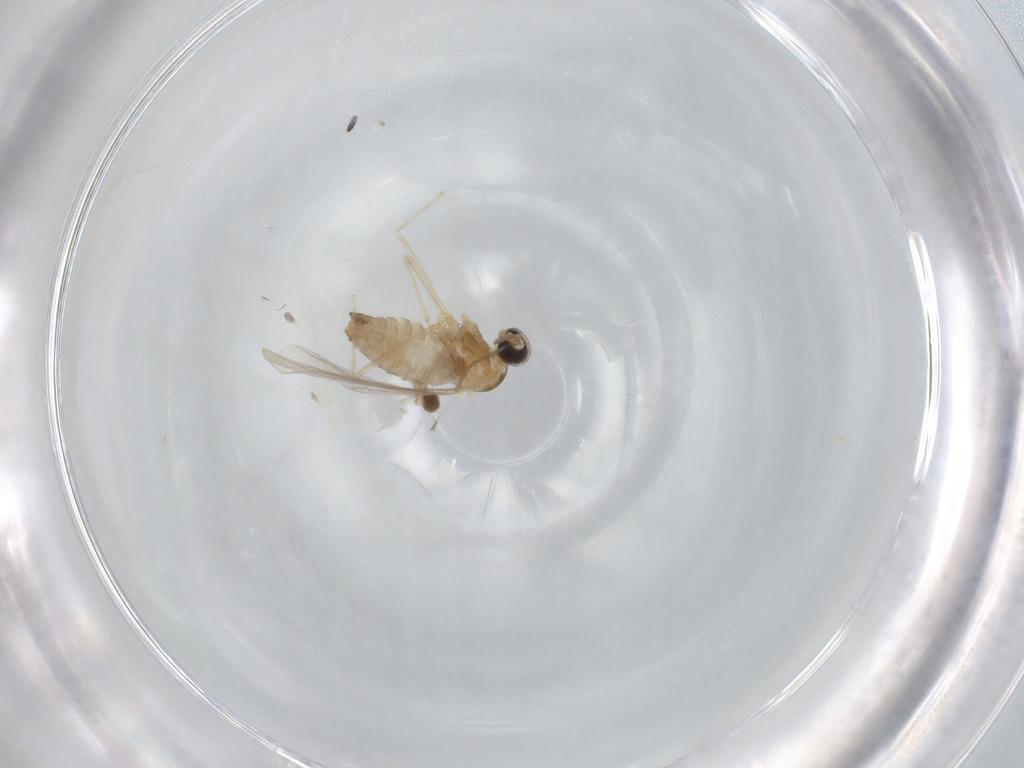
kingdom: Animalia
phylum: Arthropoda
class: Insecta
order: Diptera
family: Cecidomyiidae
